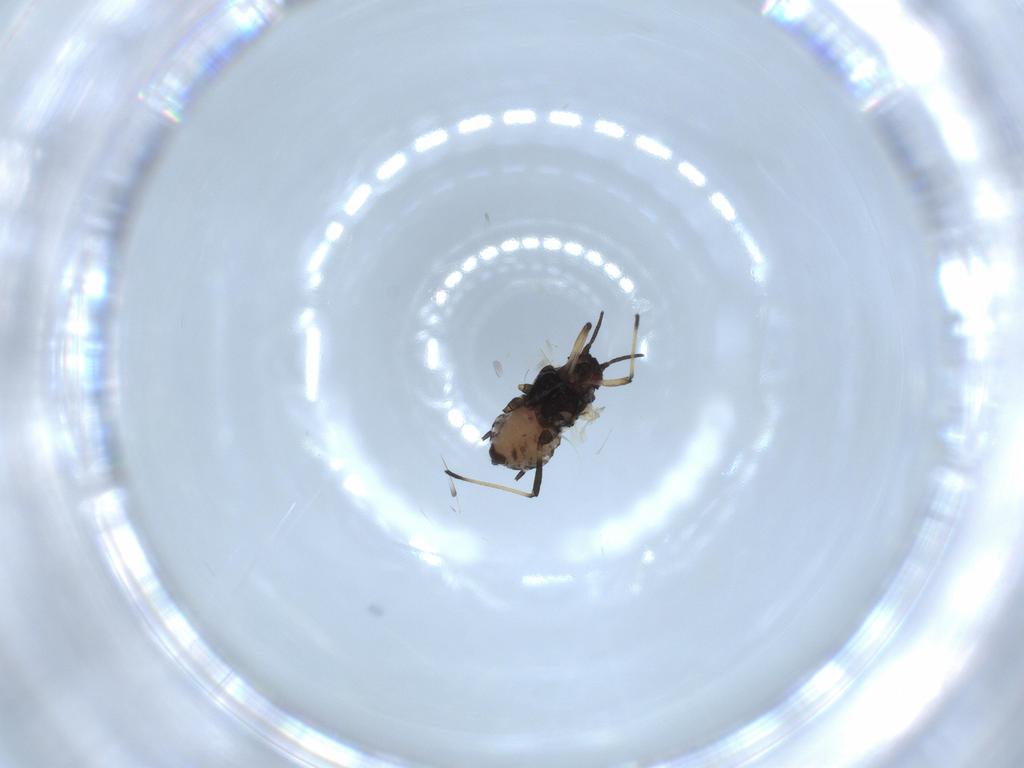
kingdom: Animalia
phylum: Arthropoda
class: Insecta
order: Hemiptera
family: Aphididae
